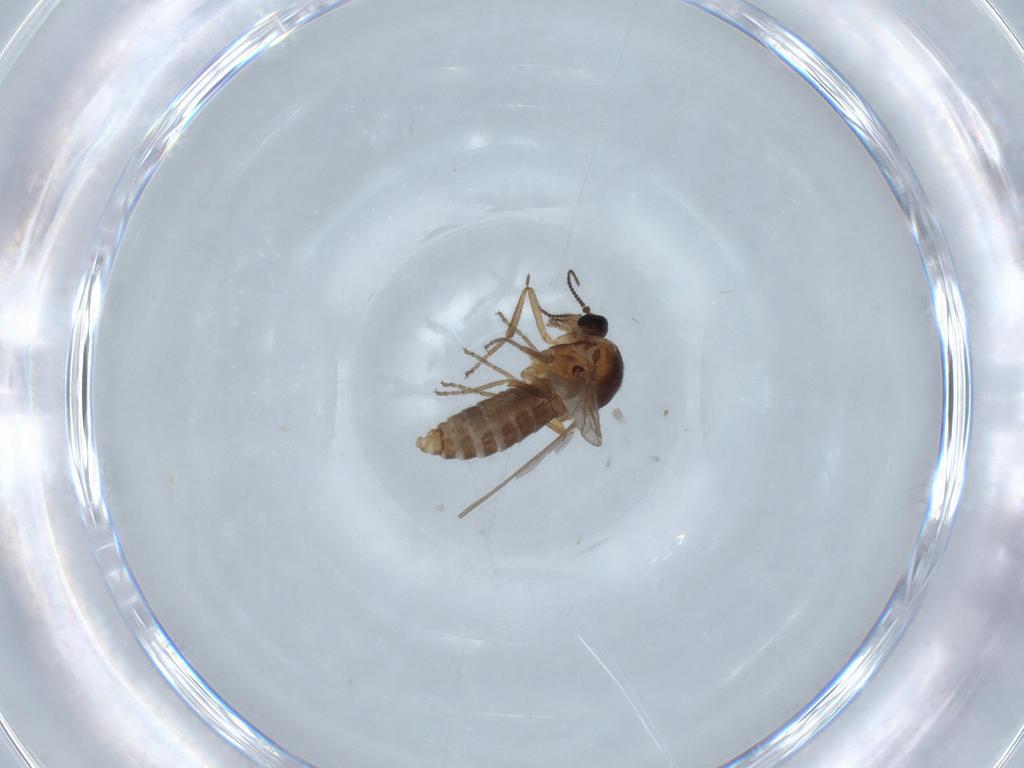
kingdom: Animalia
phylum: Arthropoda
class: Insecta
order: Diptera
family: Ceratopogonidae
